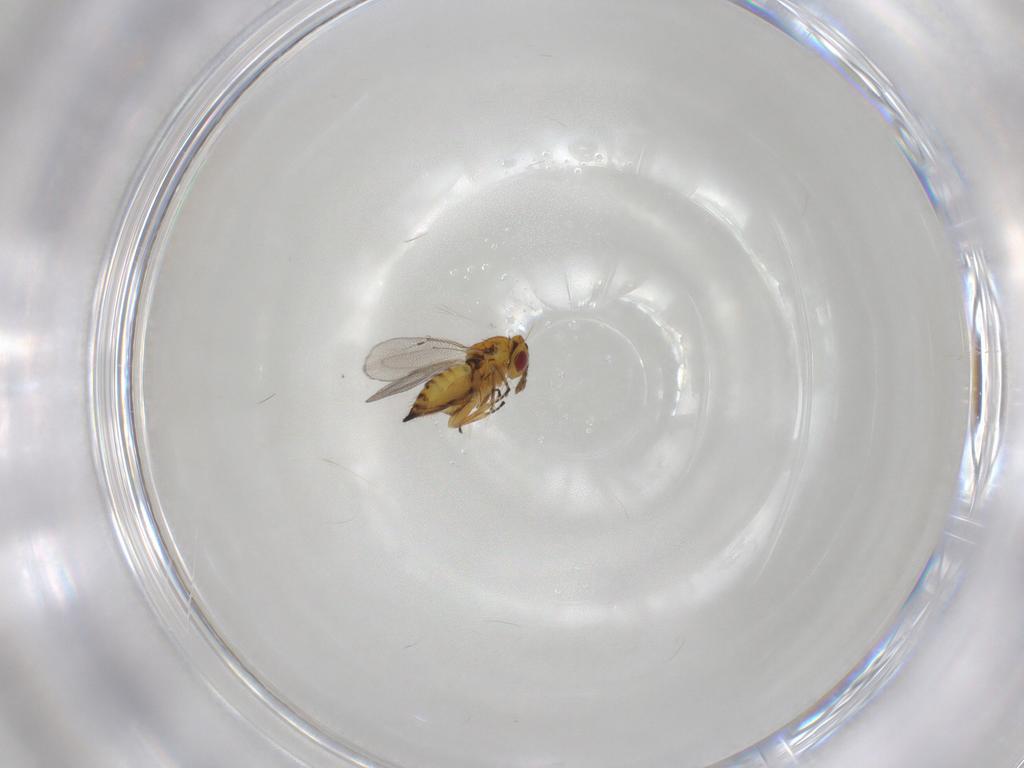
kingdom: Animalia
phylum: Arthropoda
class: Insecta
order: Hymenoptera
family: Eulophidae
